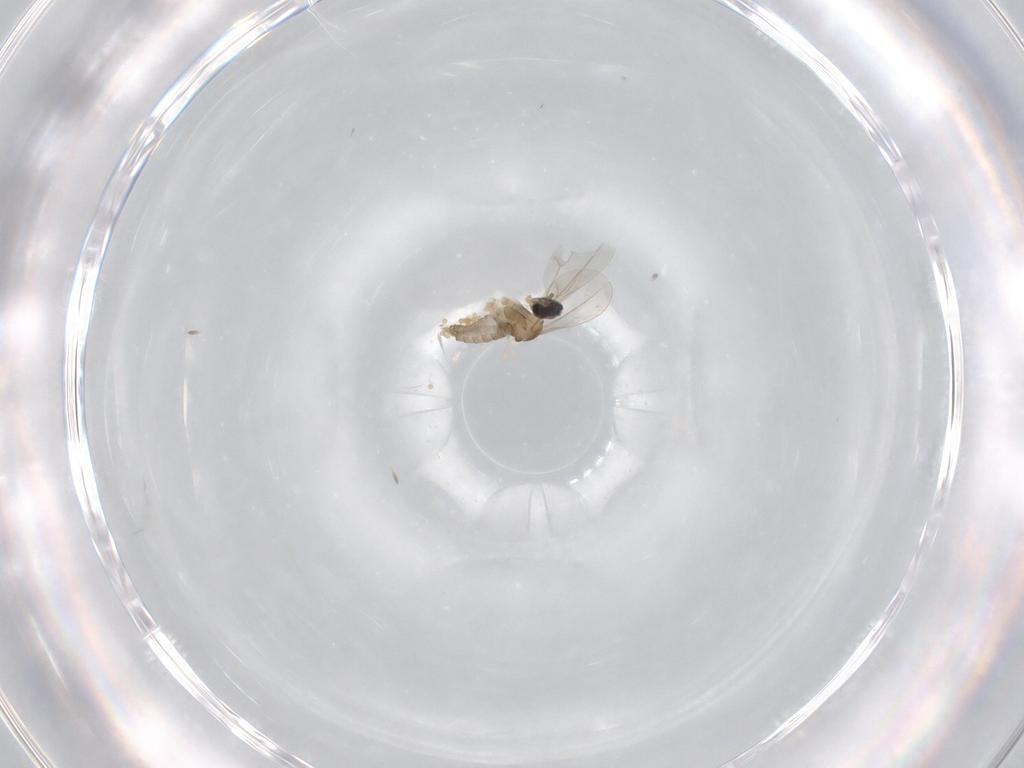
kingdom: Animalia
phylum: Arthropoda
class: Insecta
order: Diptera
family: Cecidomyiidae
